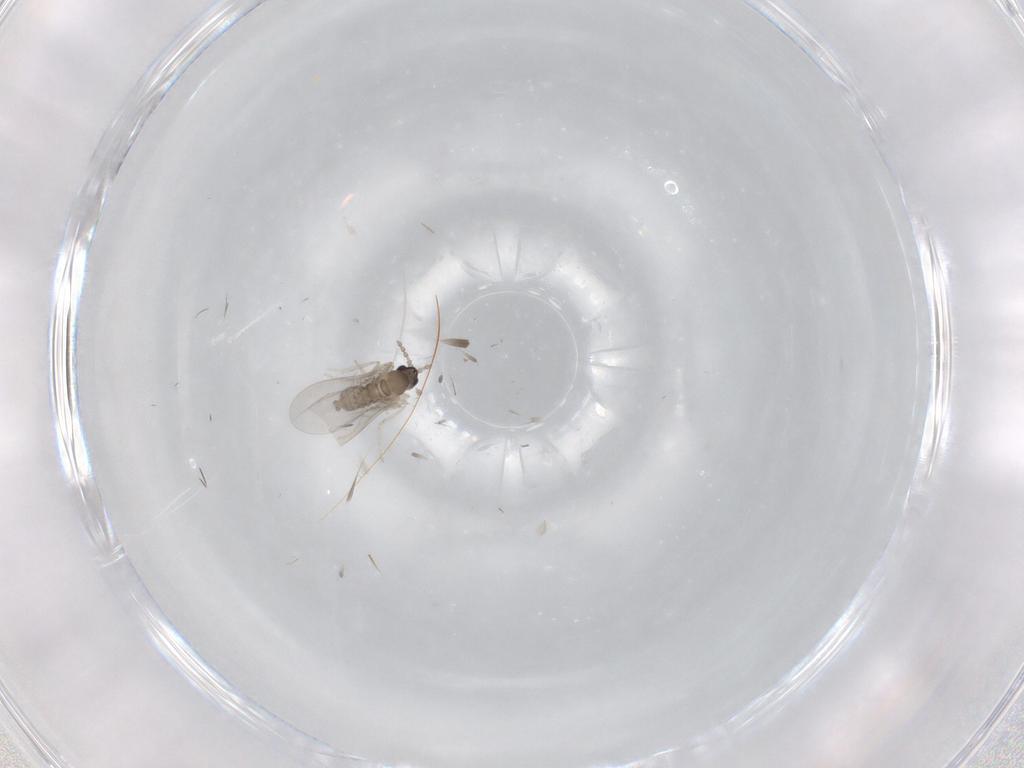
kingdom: Animalia
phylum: Arthropoda
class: Insecta
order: Diptera
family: Cecidomyiidae
